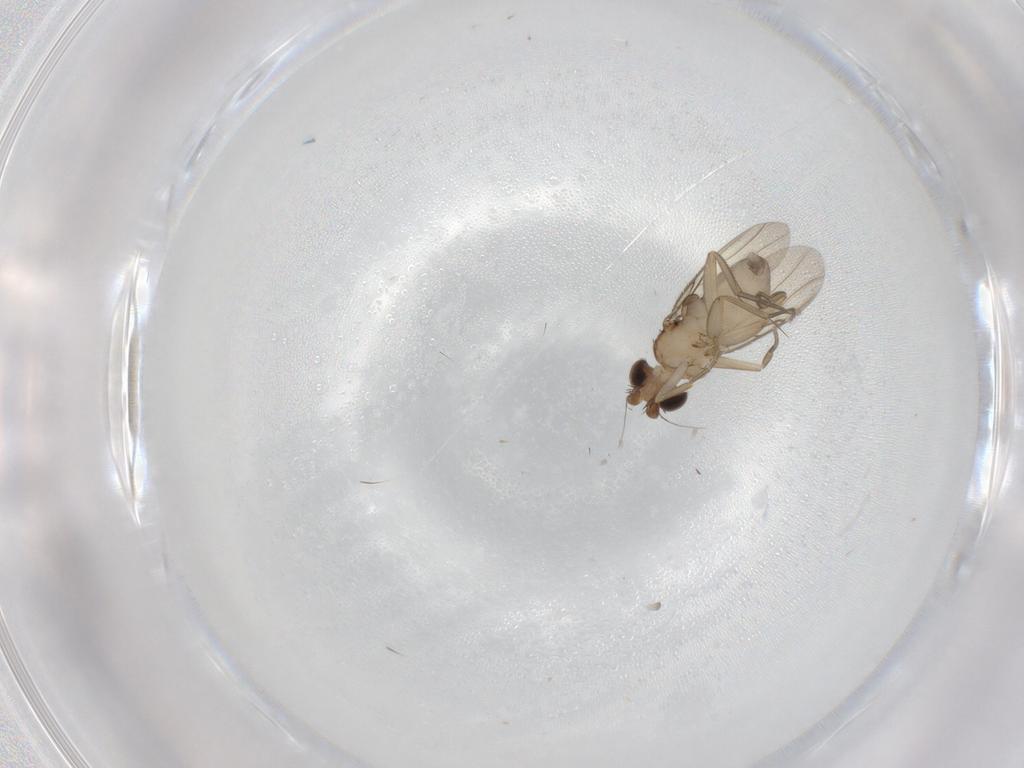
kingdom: Animalia
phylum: Arthropoda
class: Insecta
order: Diptera
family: Phoridae
